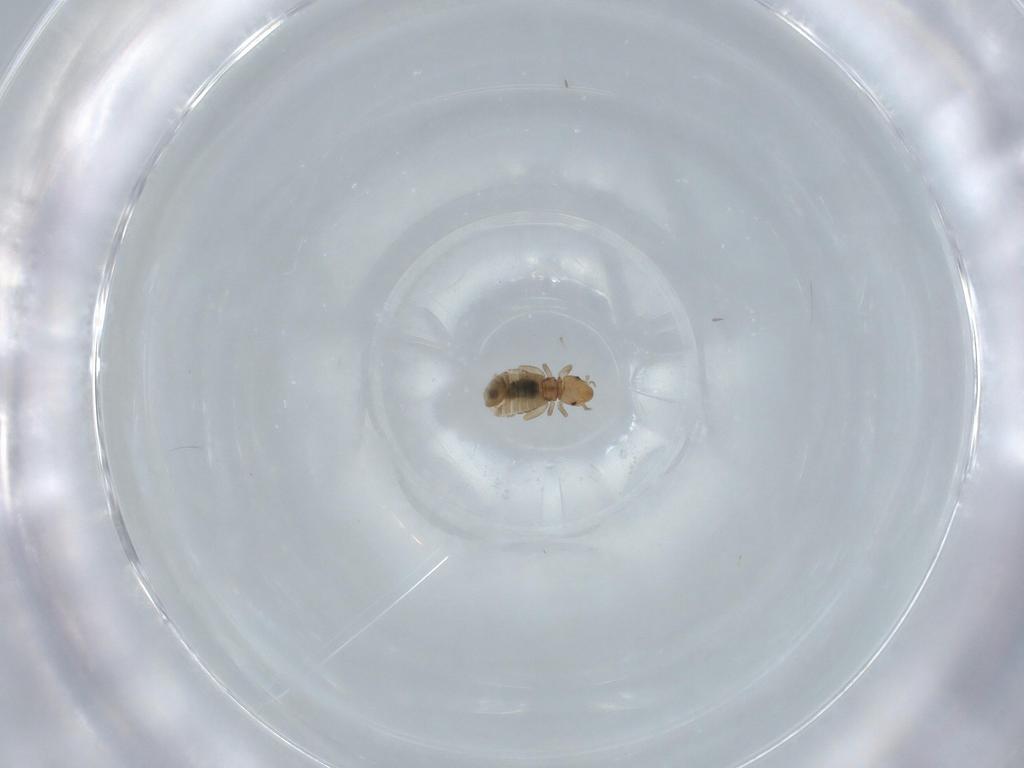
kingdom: Animalia
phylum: Arthropoda
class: Insecta
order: Psocodea
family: Liposcelididae
